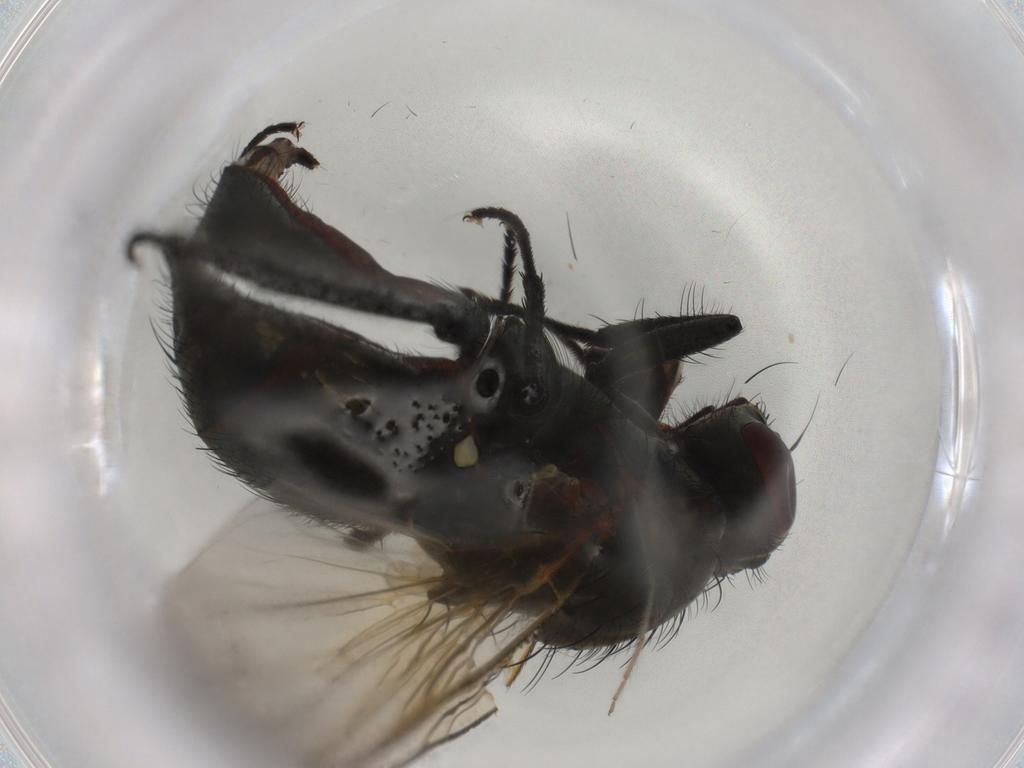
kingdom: Animalia
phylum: Arthropoda
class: Insecta
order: Diptera
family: Anthomyiidae
